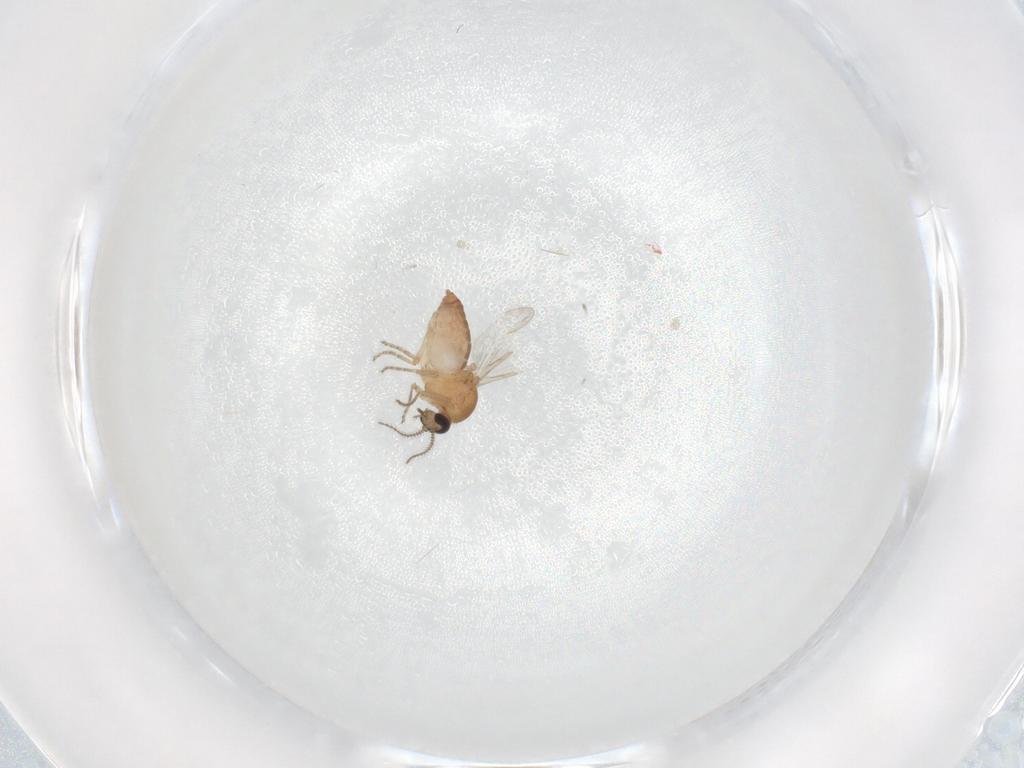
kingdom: Animalia
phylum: Arthropoda
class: Insecta
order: Diptera
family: Ceratopogonidae
